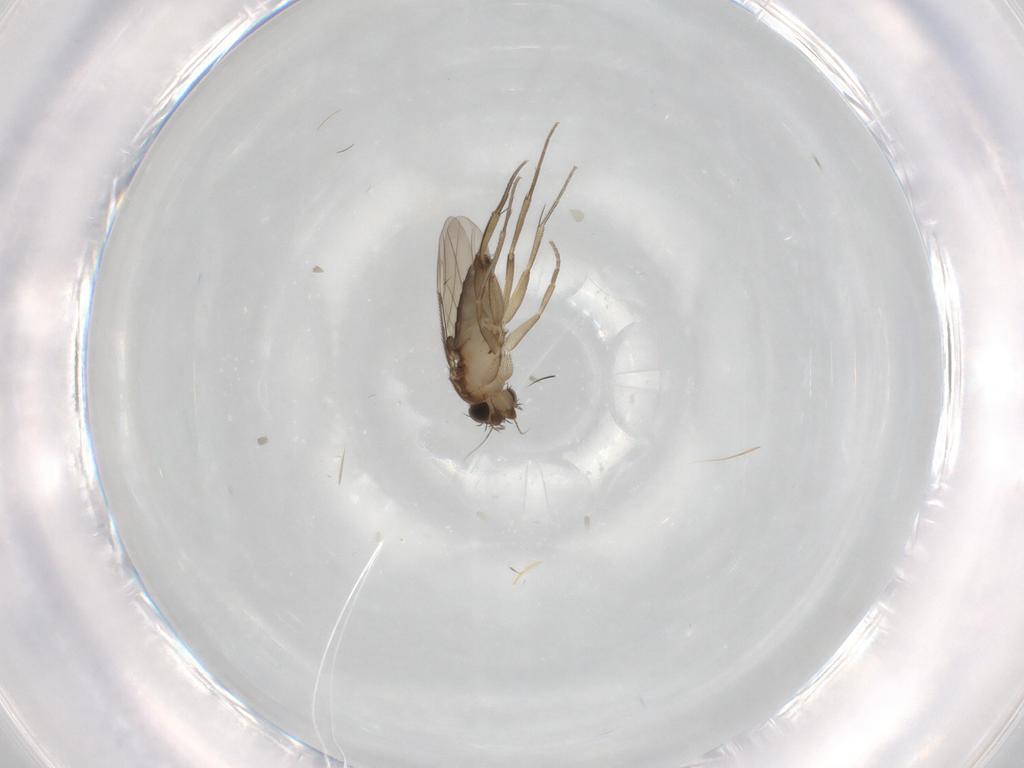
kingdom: Animalia
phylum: Arthropoda
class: Insecta
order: Diptera
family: Phoridae
